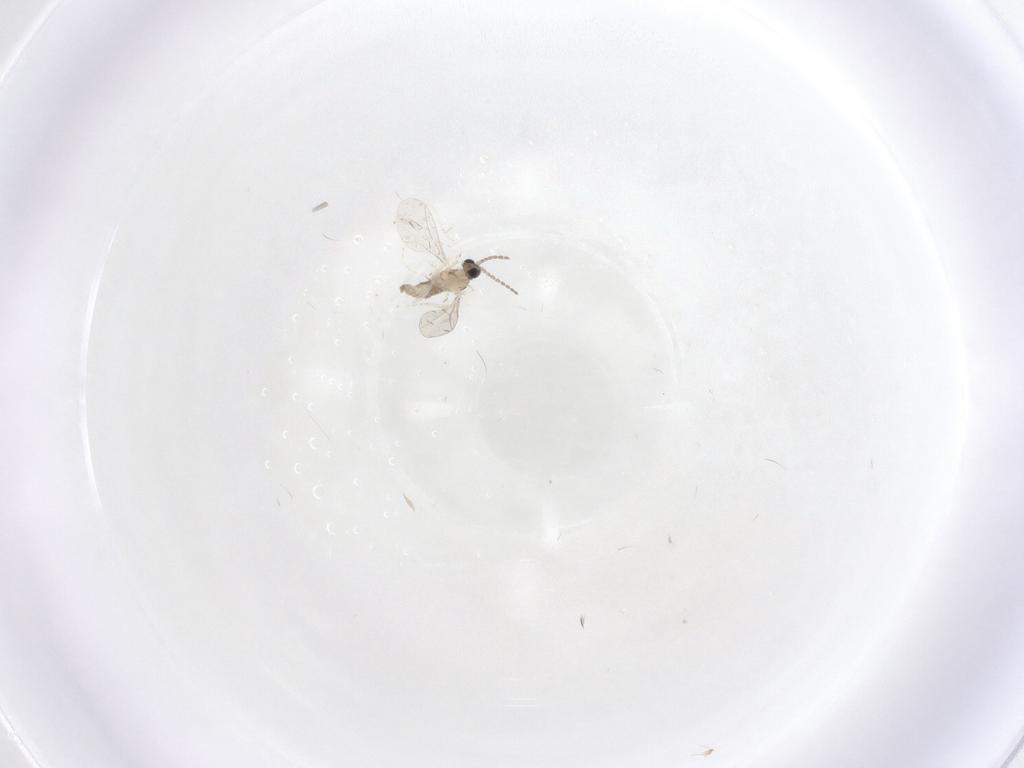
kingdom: Animalia
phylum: Arthropoda
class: Insecta
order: Diptera
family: Cecidomyiidae
